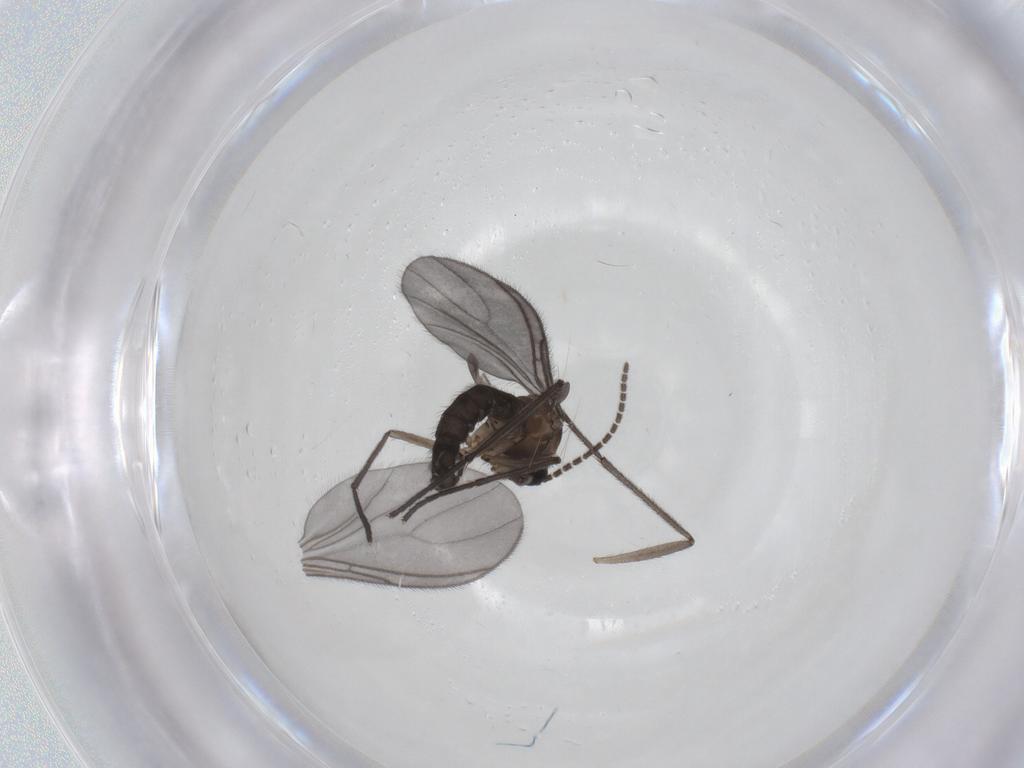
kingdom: Animalia
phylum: Arthropoda
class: Insecta
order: Diptera
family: Sciaridae
